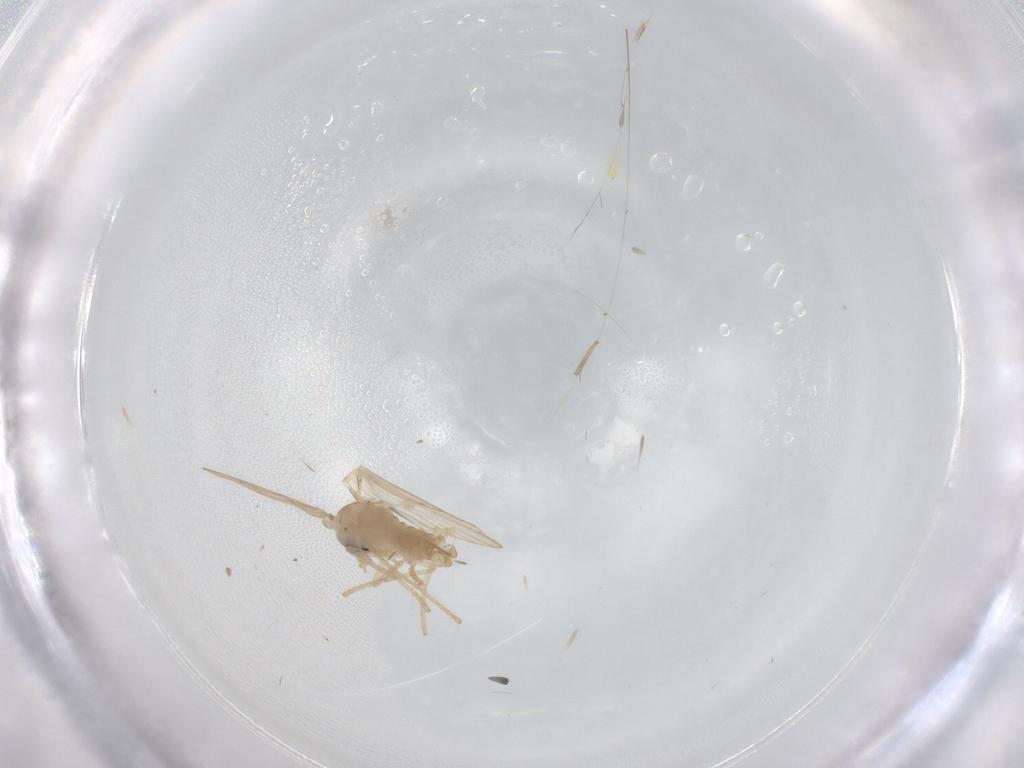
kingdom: Animalia
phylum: Arthropoda
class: Insecta
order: Diptera
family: Psychodidae
